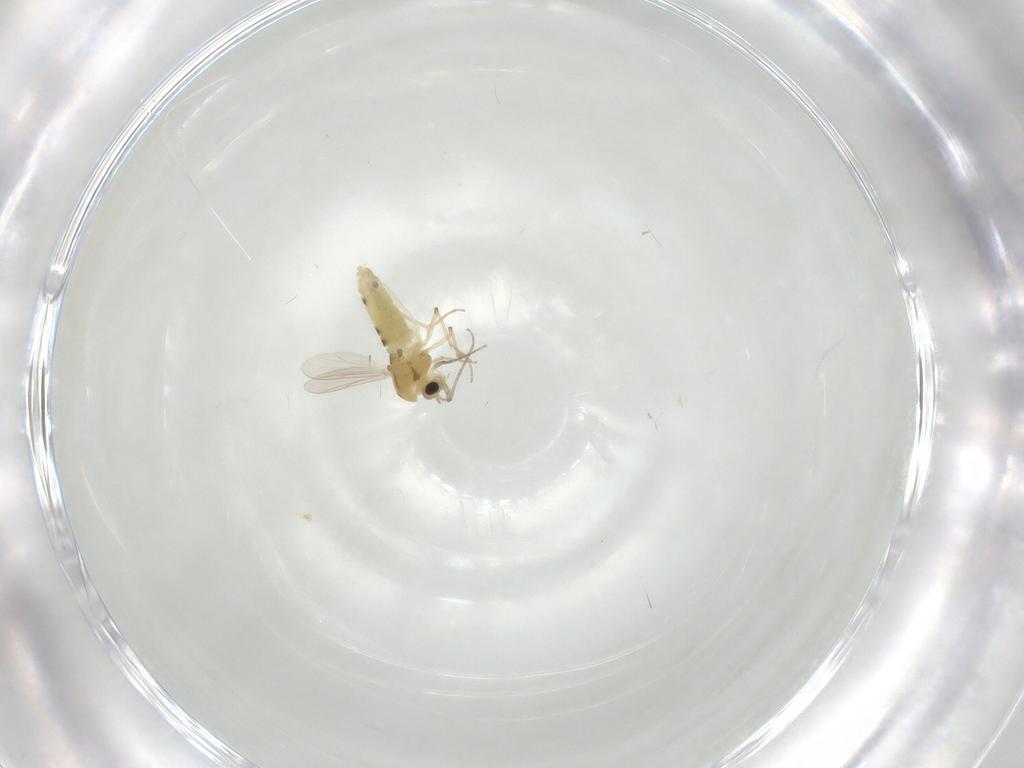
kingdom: Animalia
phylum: Arthropoda
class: Insecta
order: Diptera
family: Chironomidae
